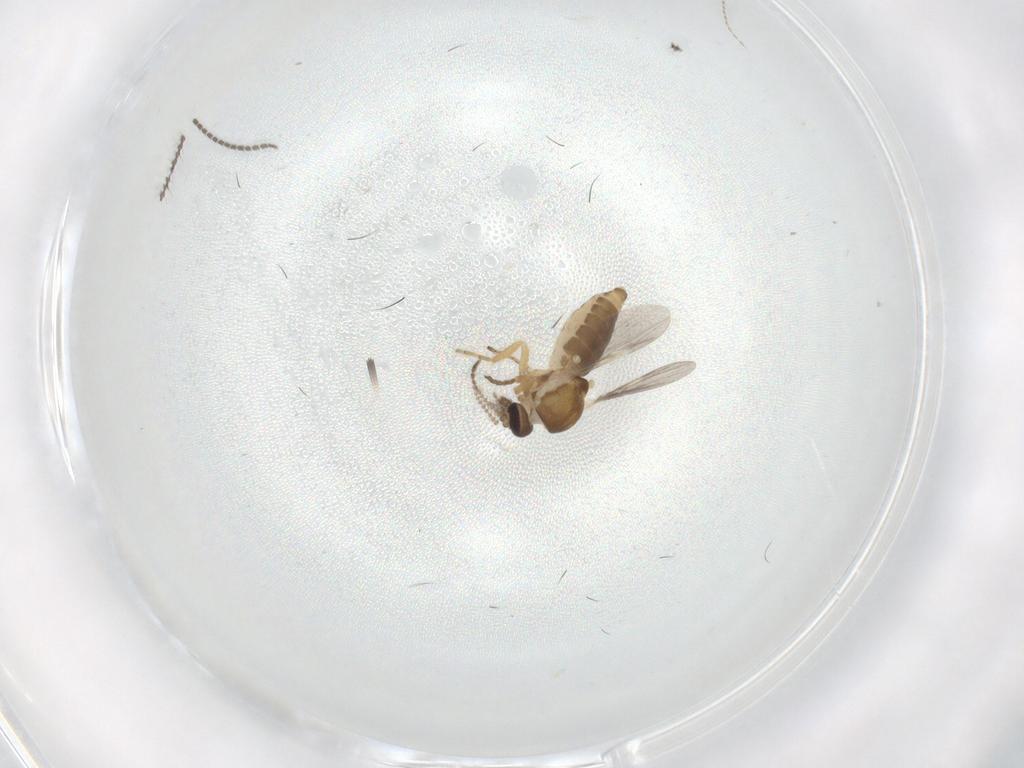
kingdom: Animalia
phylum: Arthropoda
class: Insecta
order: Diptera
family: Ceratopogonidae
